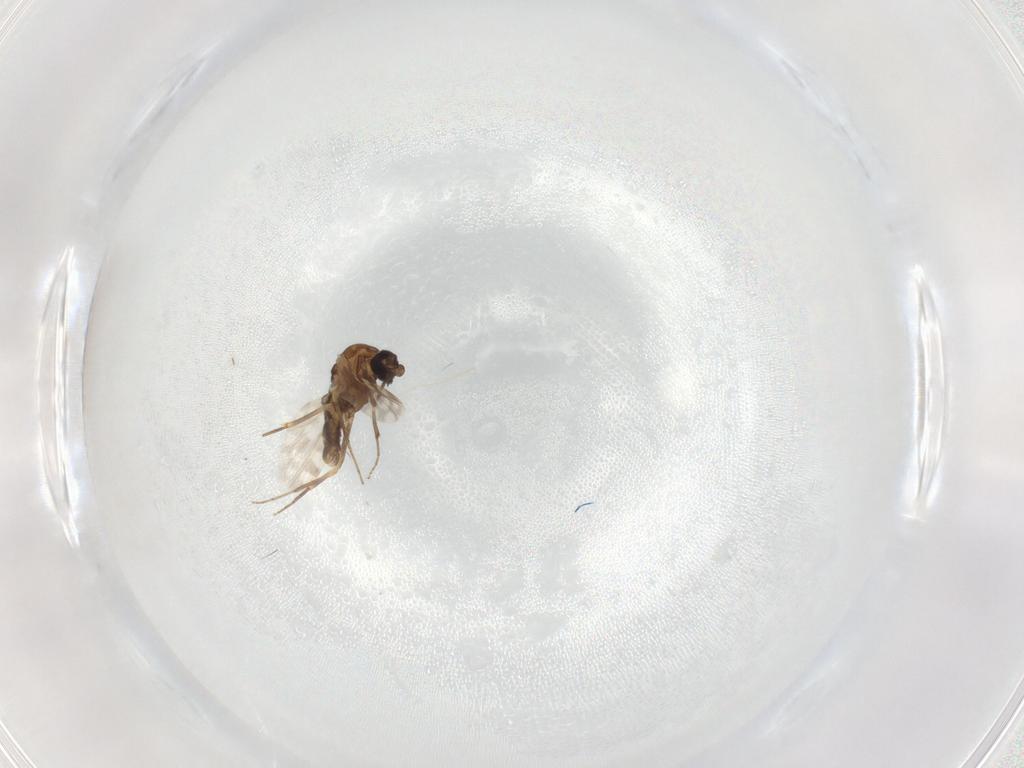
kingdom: Animalia
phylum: Arthropoda
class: Insecta
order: Diptera
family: Ceratopogonidae
